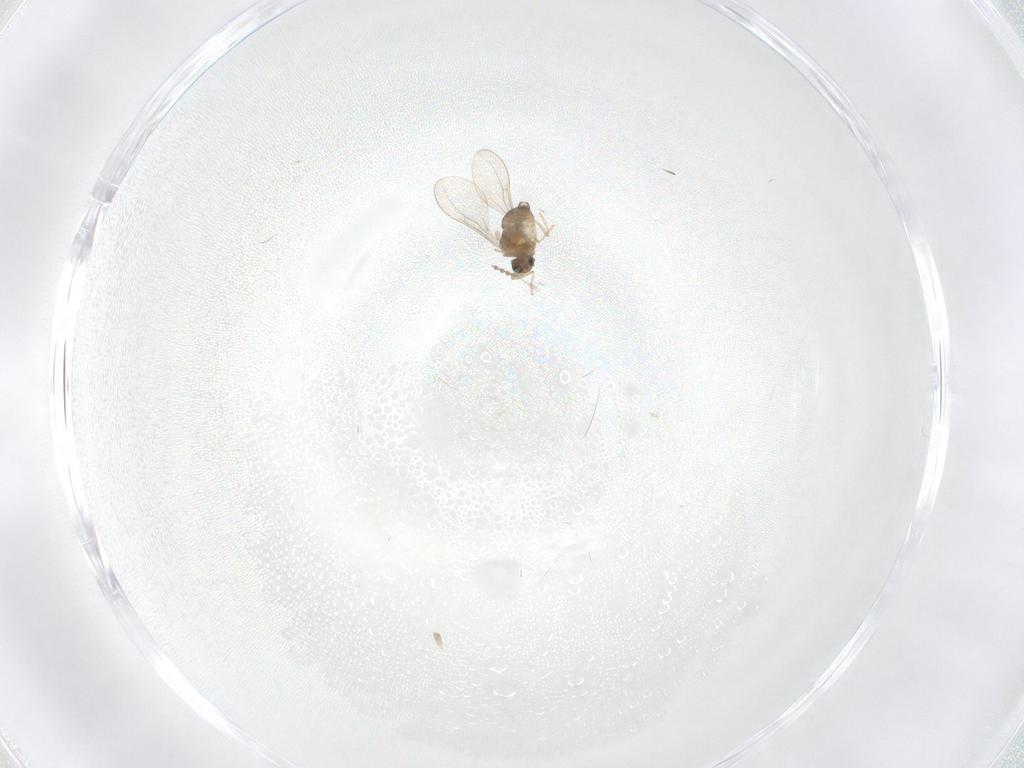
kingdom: Animalia
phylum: Arthropoda
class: Insecta
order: Diptera
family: Cecidomyiidae
